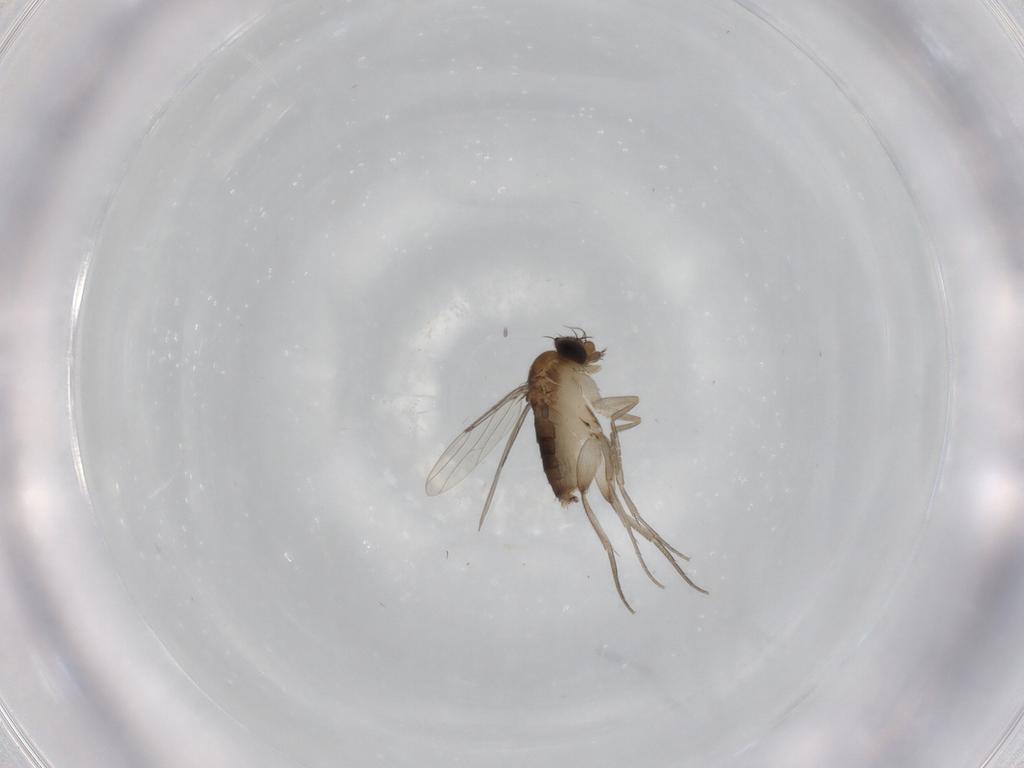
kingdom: Animalia
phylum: Arthropoda
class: Insecta
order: Diptera
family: Phoridae
